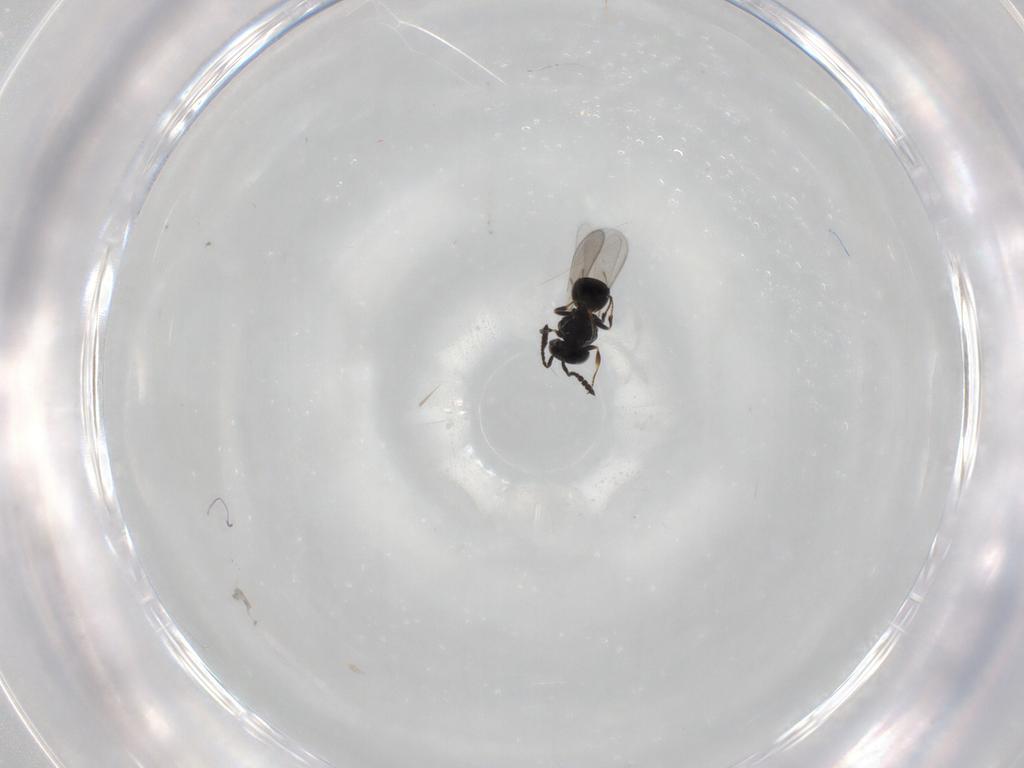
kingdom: Animalia
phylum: Arthropoda
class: Insecta
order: Hymenoptera
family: Scelionidae
